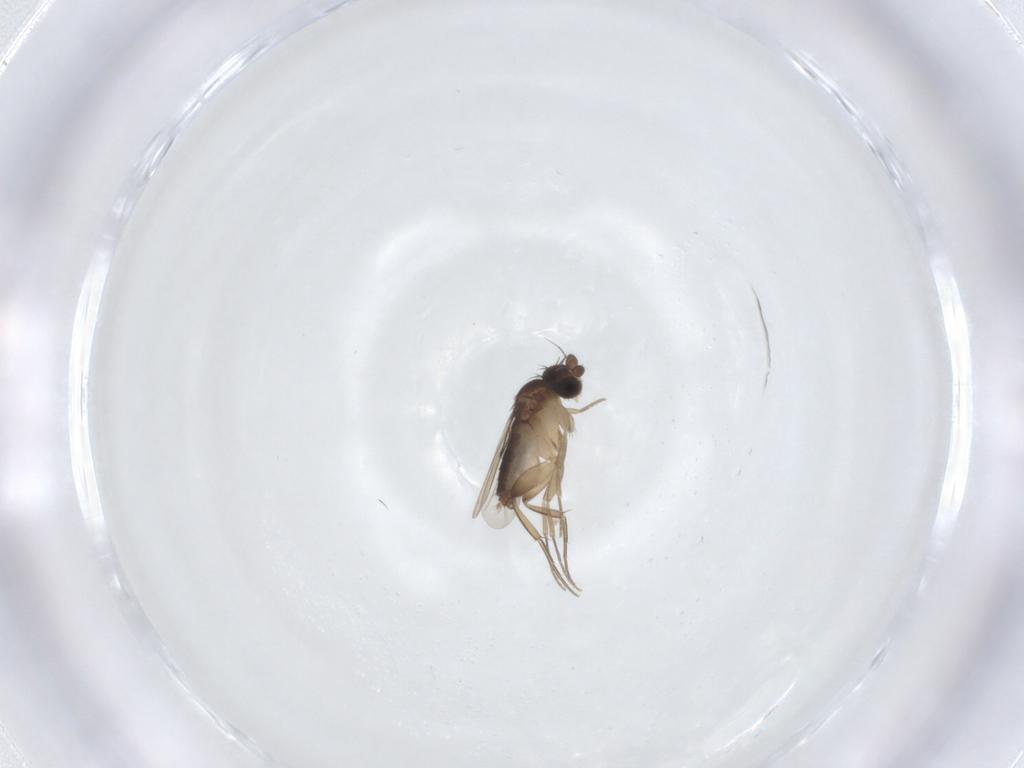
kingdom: Animalia
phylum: Arthropoda
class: Insecta
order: Diptera
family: Phoridae
